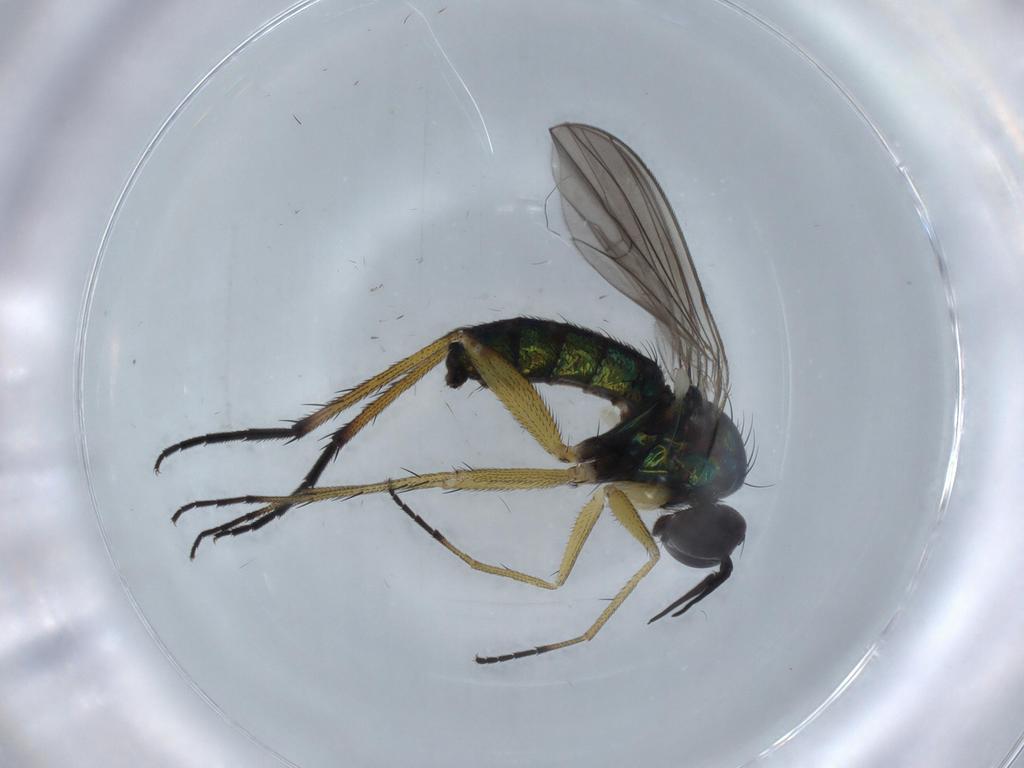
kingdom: Animalia
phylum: Arthropoda
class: Insecta
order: Diptera
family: Dolichopodidae
